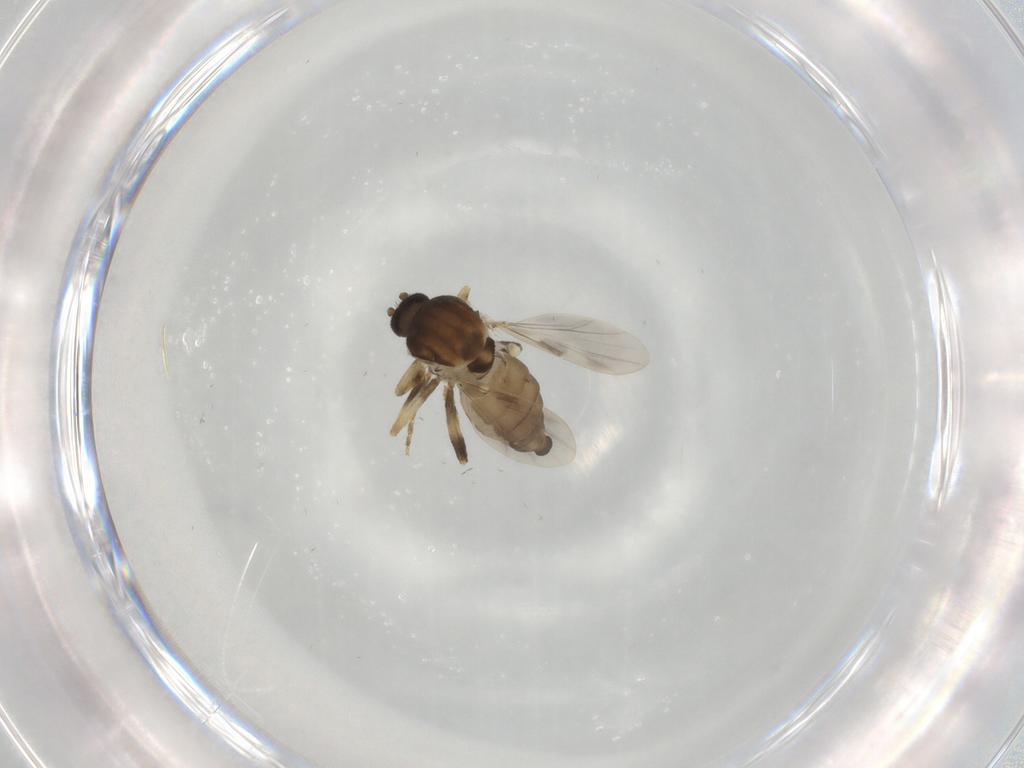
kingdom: Animalia
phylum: Arthropoda
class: Insecta
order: Diptera
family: Ceratopogonidae
